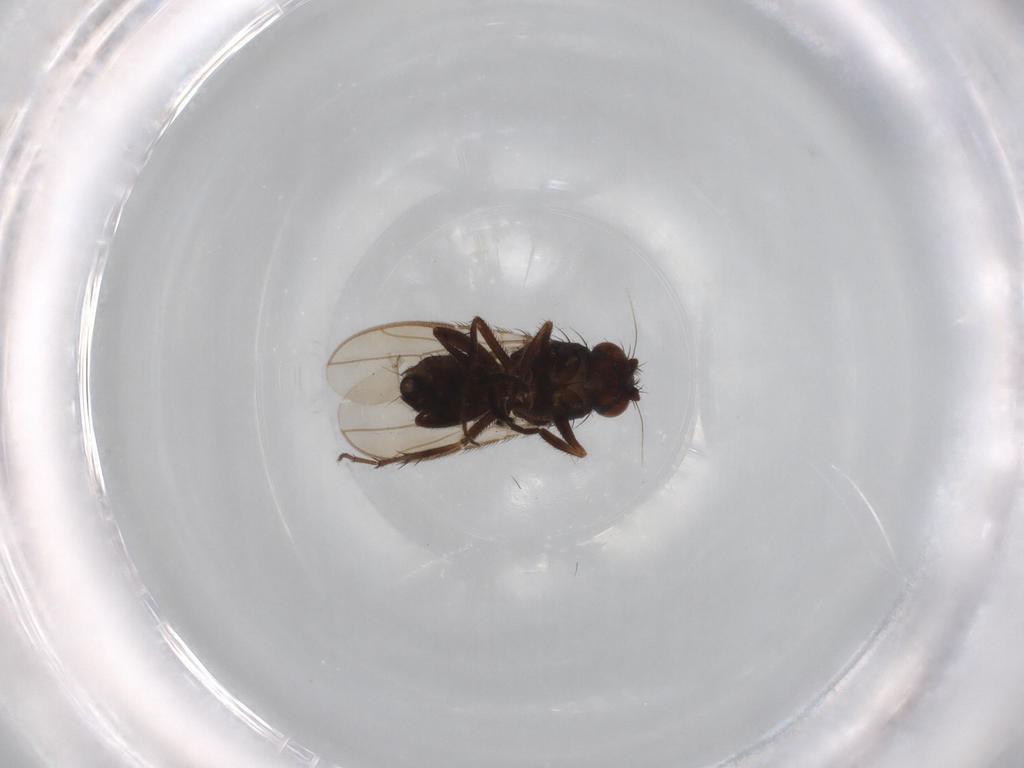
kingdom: Animalia
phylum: Arthropoda
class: Insecta
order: Diptera
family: Sphaeroceridae
